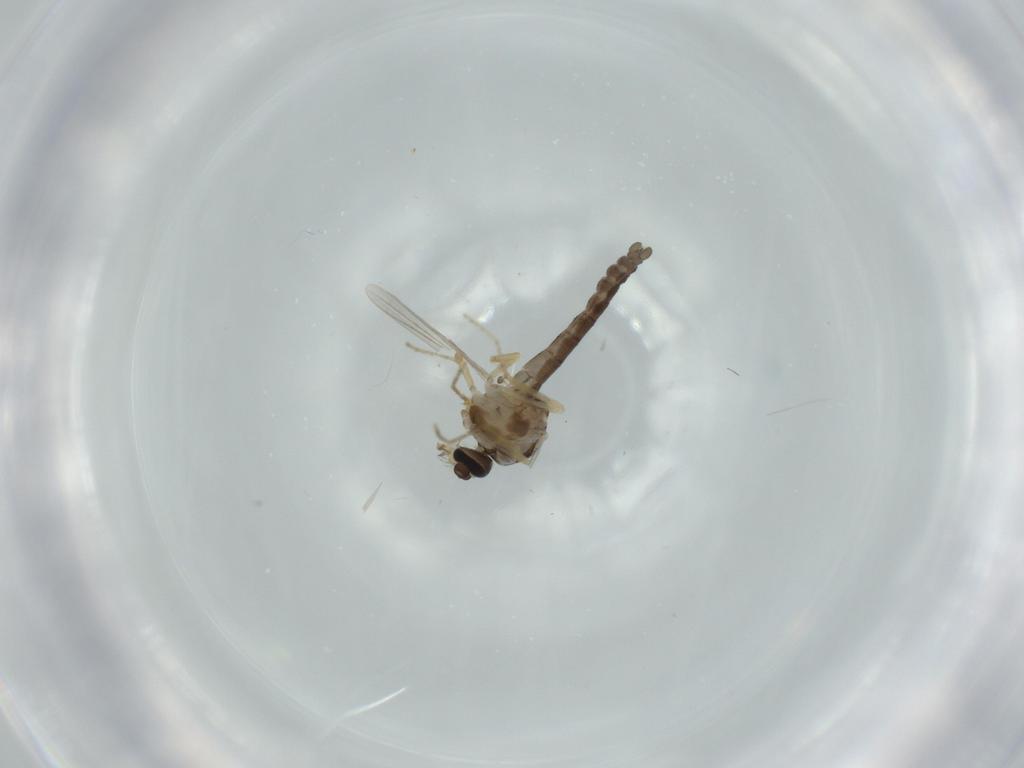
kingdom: Animalia
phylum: Arthropoda
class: Insecta
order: Diptera
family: Ceratopogonidae
